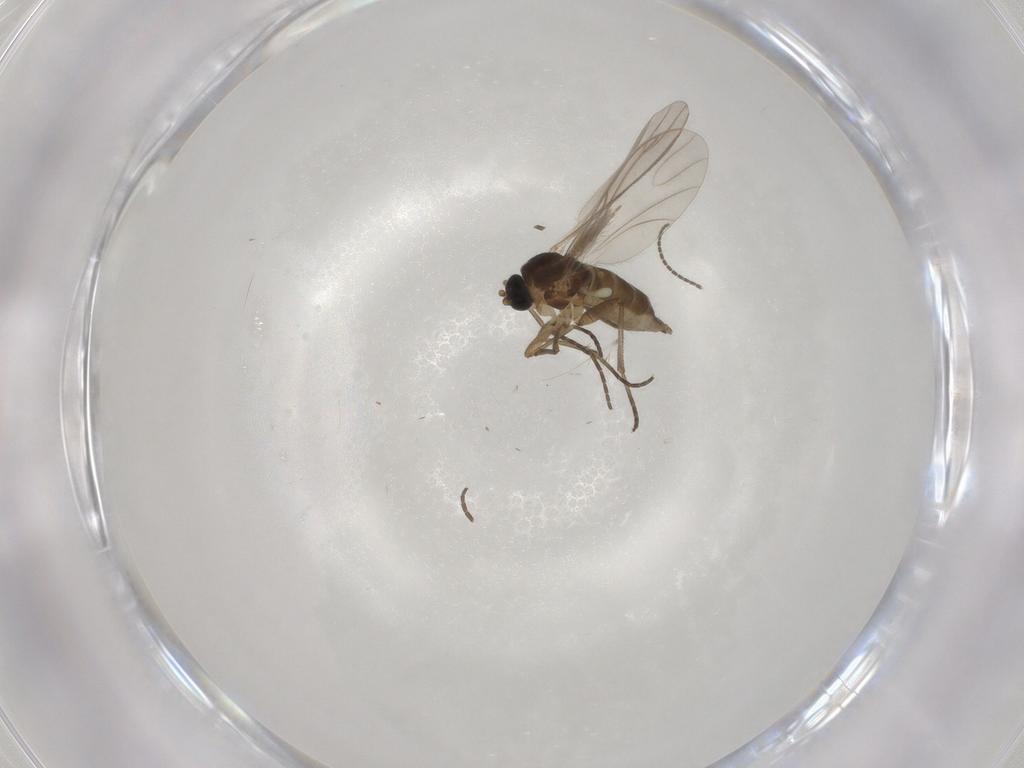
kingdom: Animalia
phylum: Arthropoda
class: Insecta
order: Diptera
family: Ceratopogonidae
